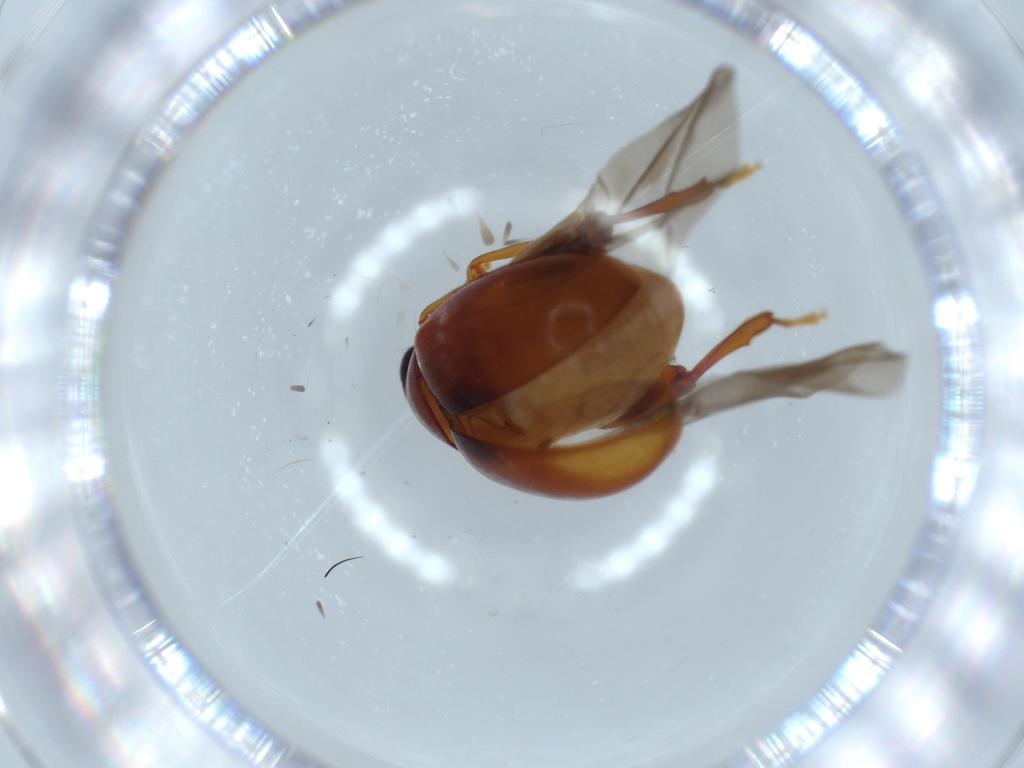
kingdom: Animalia
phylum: Arthropoda
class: Insecta
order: Coleoptera
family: Chrysomelidae
